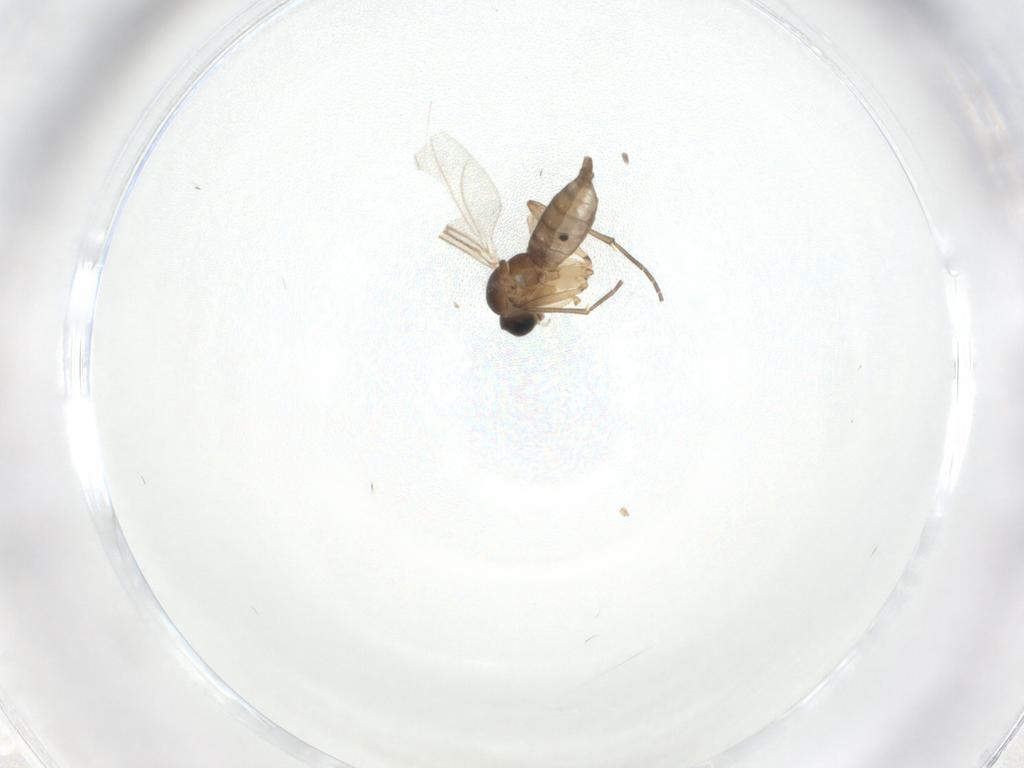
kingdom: Animalia
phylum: Arthropoda
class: Insecta
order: Diptera
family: Sciaridae
